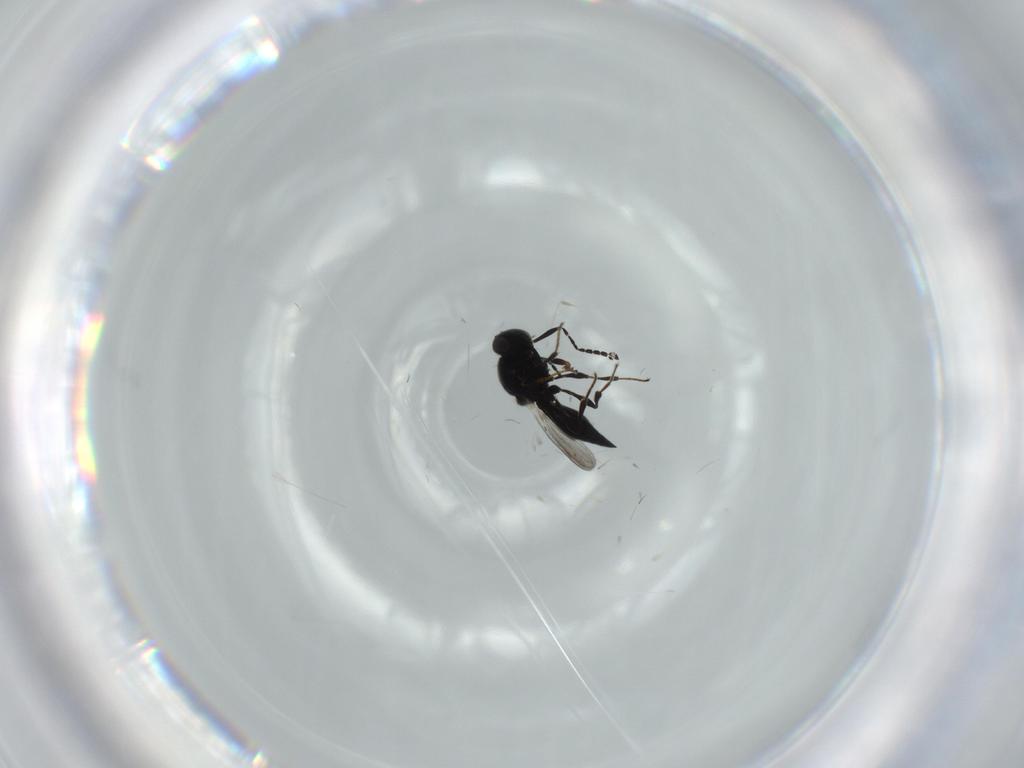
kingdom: Animalia
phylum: Arthropoda
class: Insecta
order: Diptera
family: Mythicomyiidae
